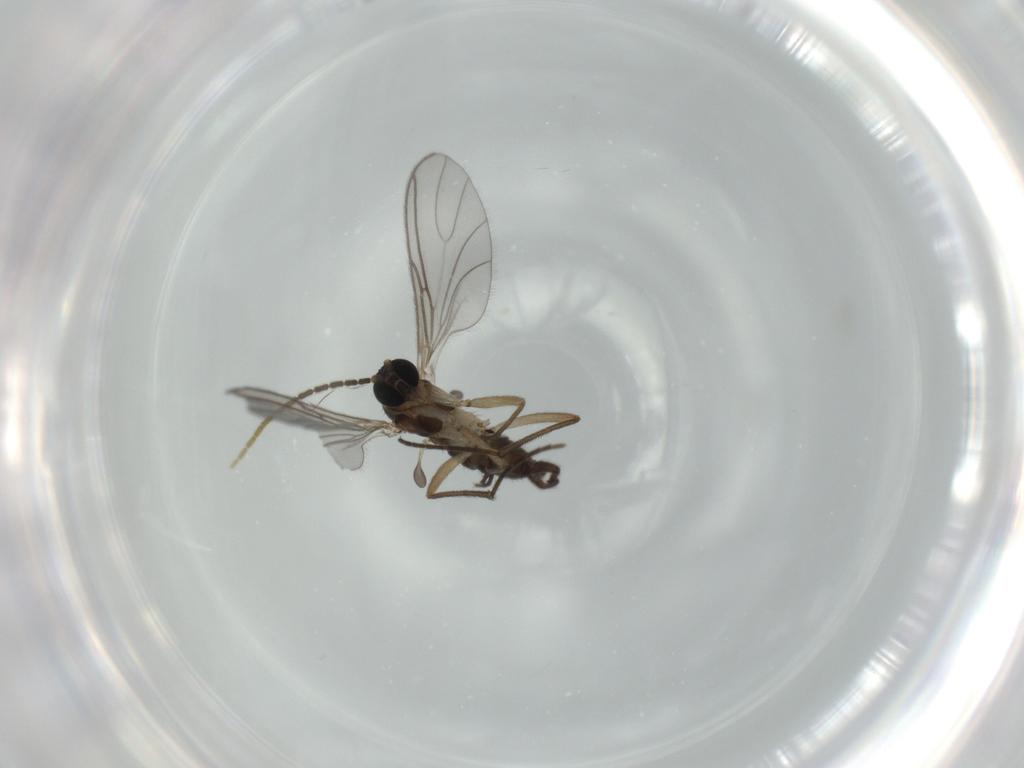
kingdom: Animalia
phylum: Arthropoda
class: Insecta
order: Diptera
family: Sciaridae
